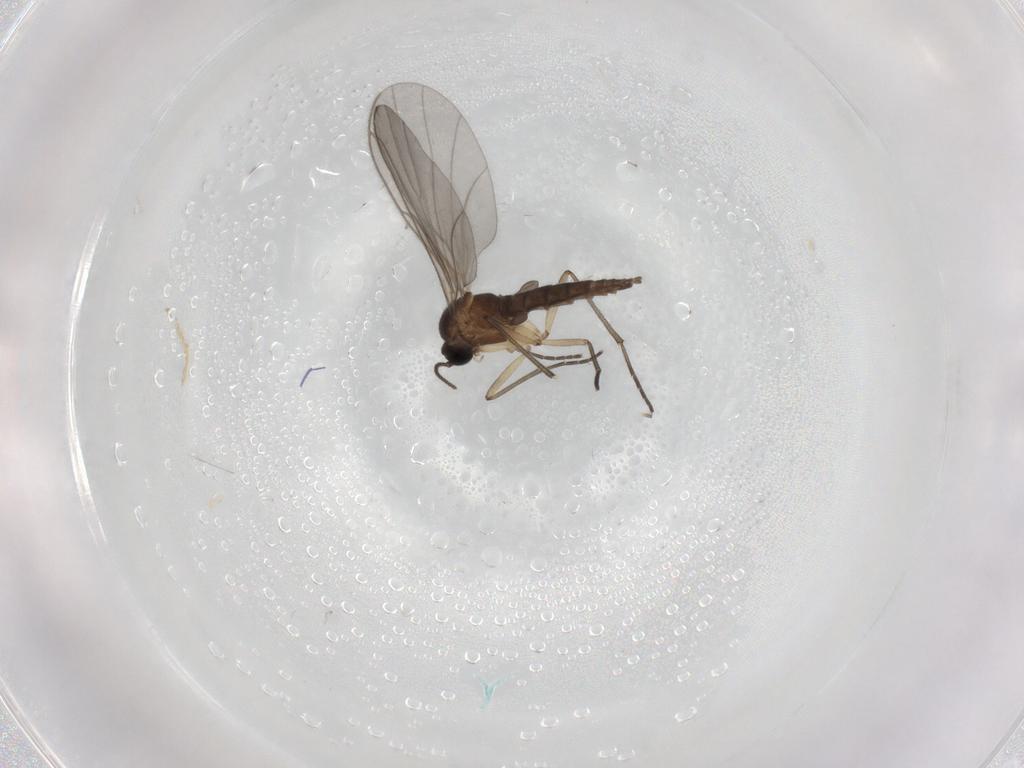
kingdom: Animalia
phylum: Arthropoda
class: Insecta
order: Diptera
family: Sciaridae
